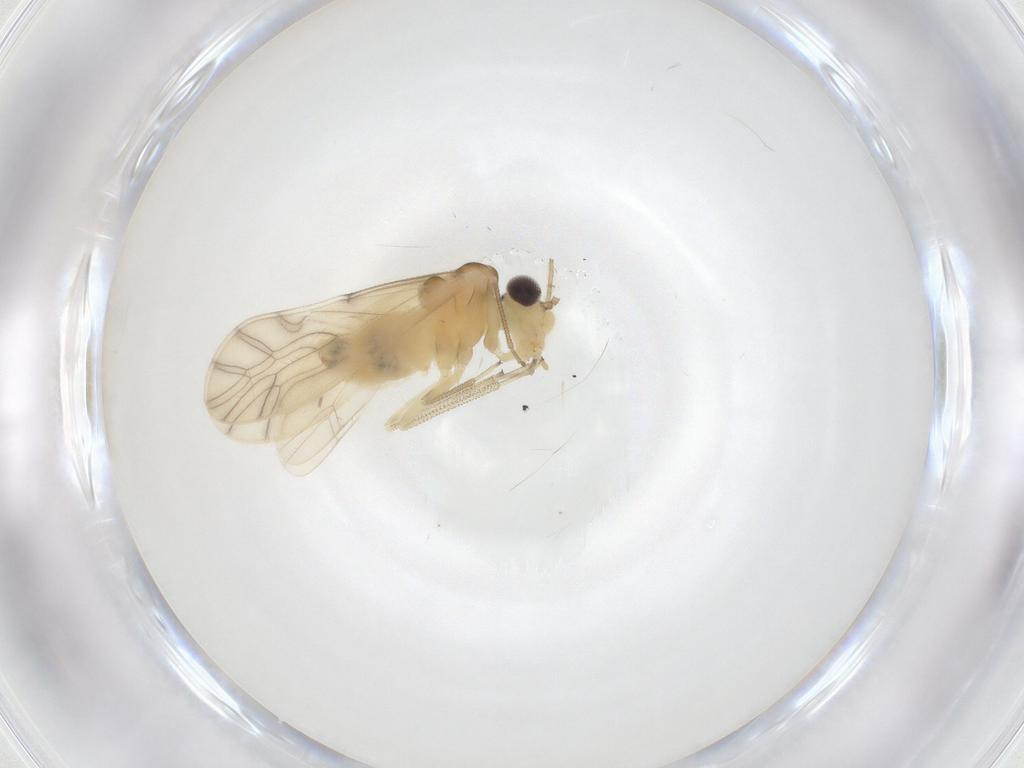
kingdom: Animalia
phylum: Arthropoda
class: Insecta
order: Psocodea
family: Caeciliusidae
